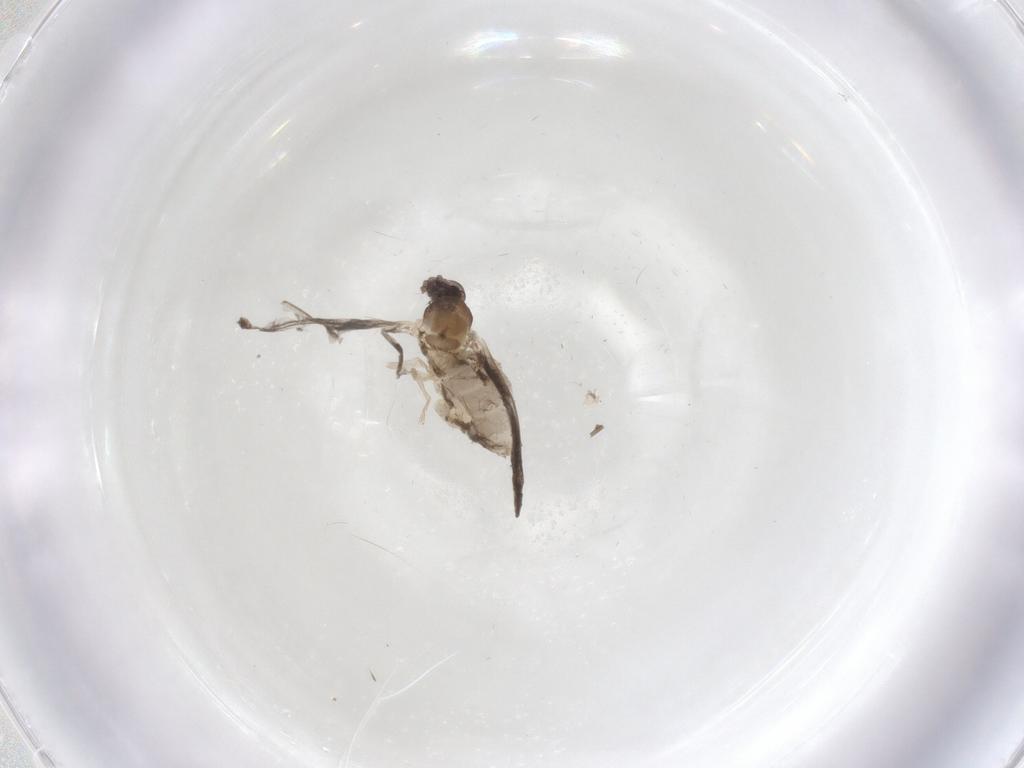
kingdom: Animalia
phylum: Arthropoda
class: Insecta
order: Diptera
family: Cecidomyiidae
